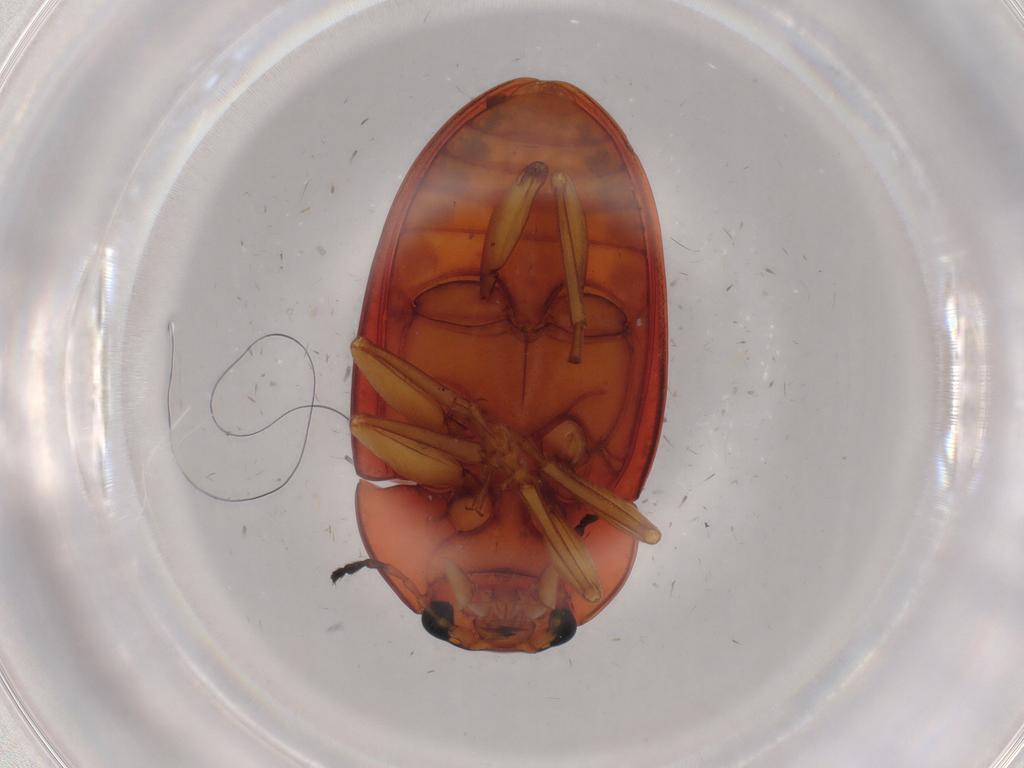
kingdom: Animalia
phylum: Arthropoda
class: Insecta
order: Coleoptera
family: Erotylidae
